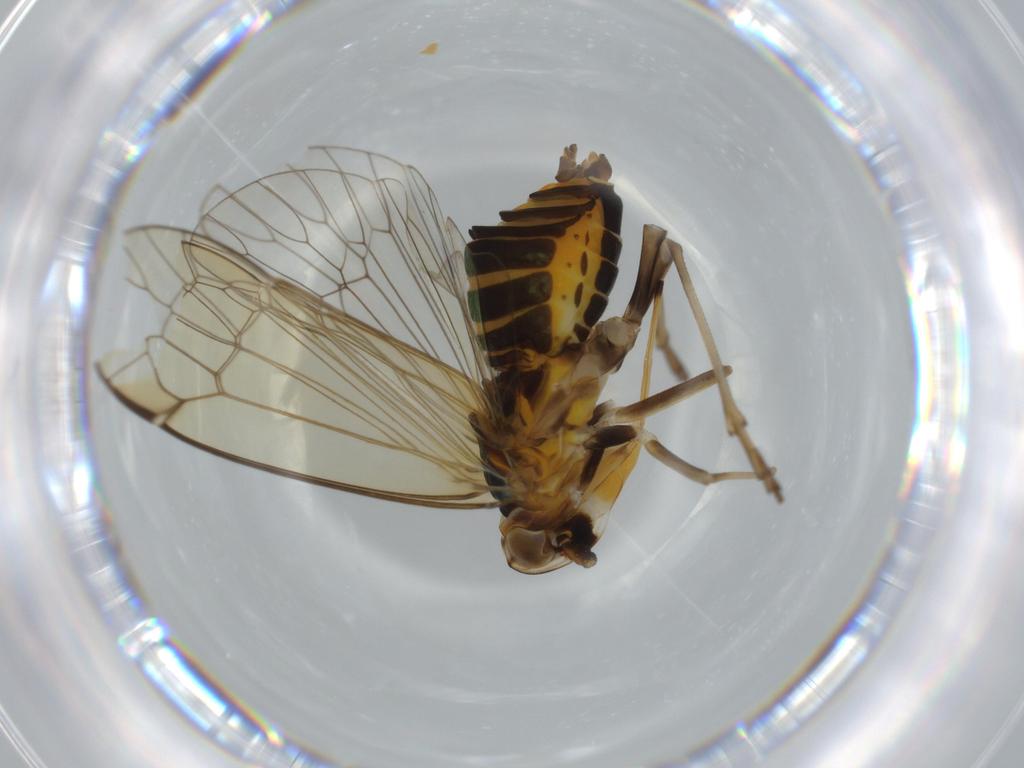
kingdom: Animalia
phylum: Arthropoda
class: Insecta
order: Hemiptera
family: Kinnaridae
